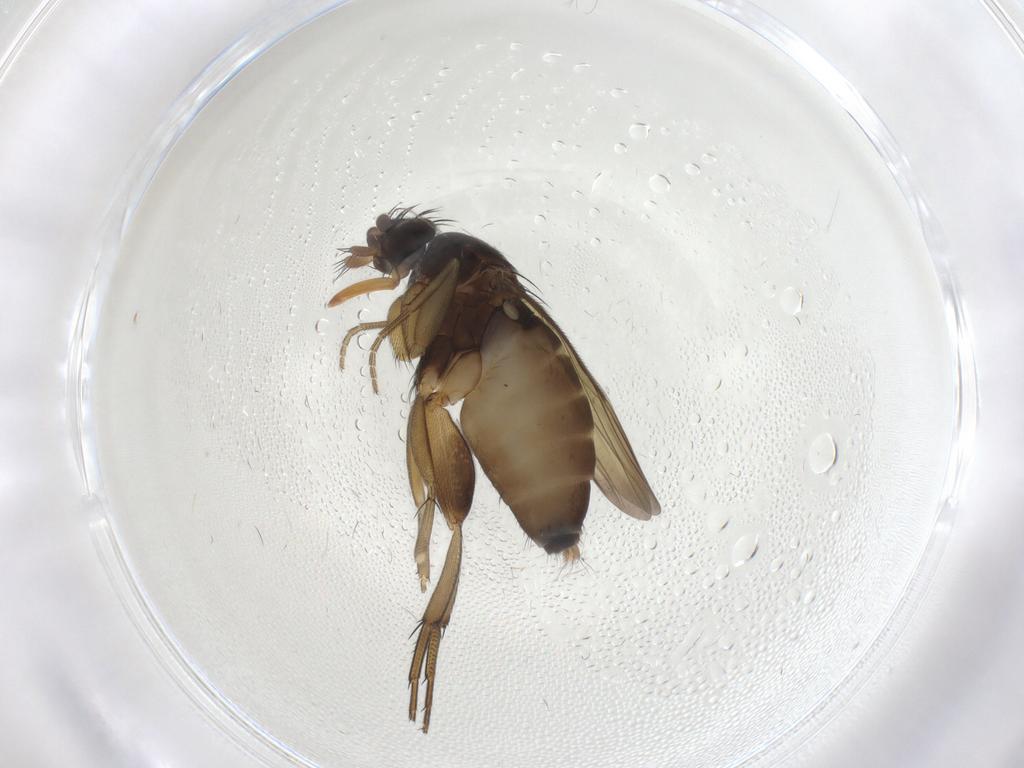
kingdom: Animalia
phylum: Arthropoda
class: Insecta
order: Diptera
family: Phoridae
